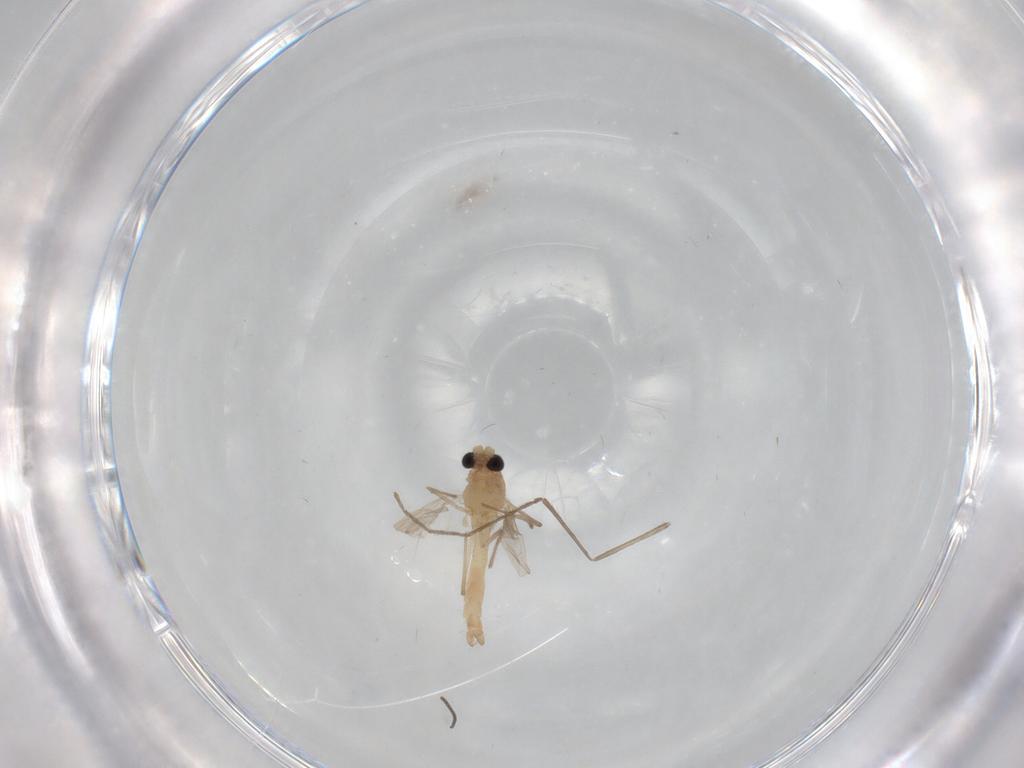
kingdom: Animalia
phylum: Arthropoda
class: Insecta
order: Diptera
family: Chironomidae
